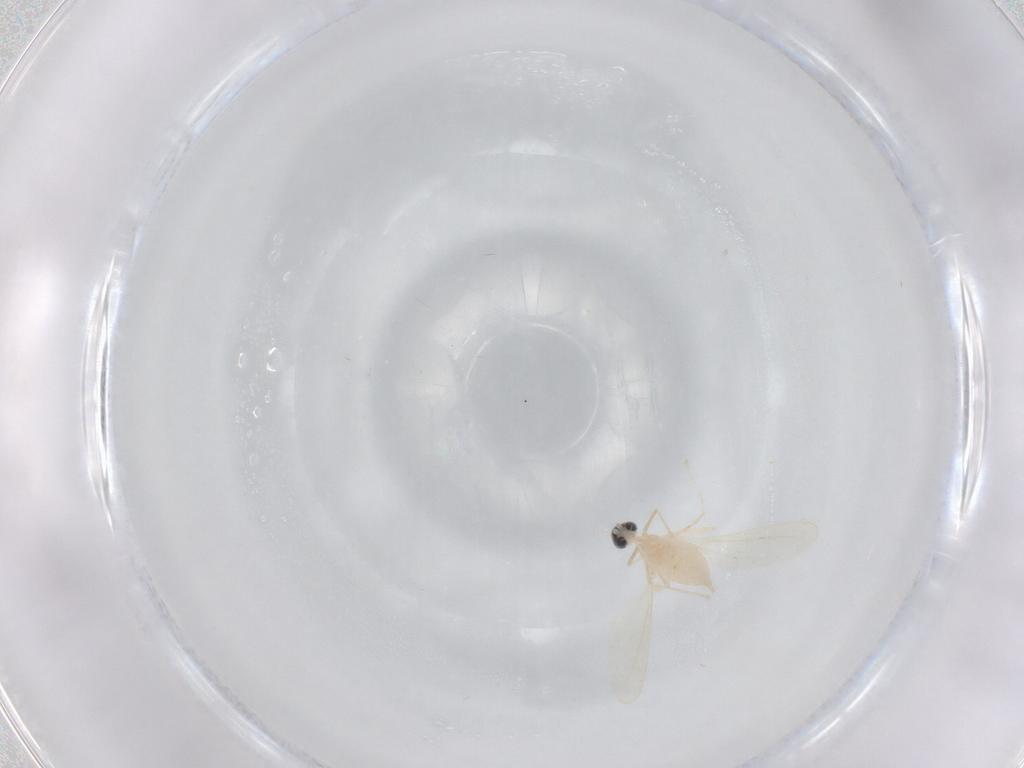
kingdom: Animalia
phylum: Arthropoda
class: Insecta
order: Diptera
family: Cecidomyiidae
